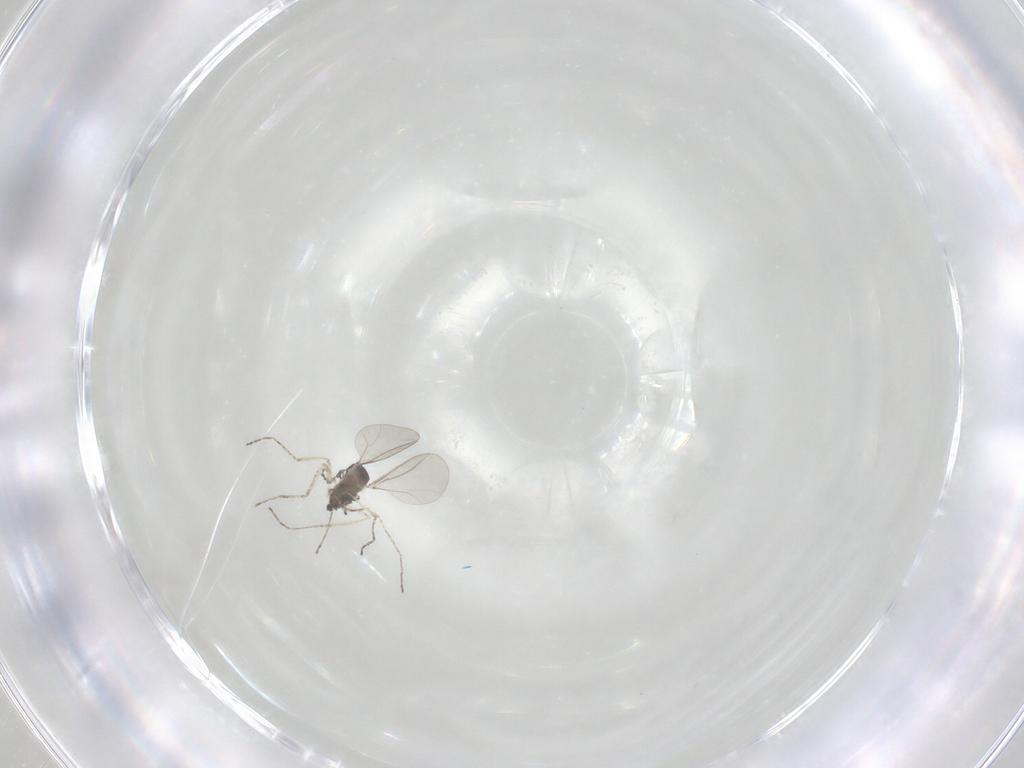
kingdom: Animalia
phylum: Arthropoda
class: Insecta
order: Diptera
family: Cecidomyiidae
